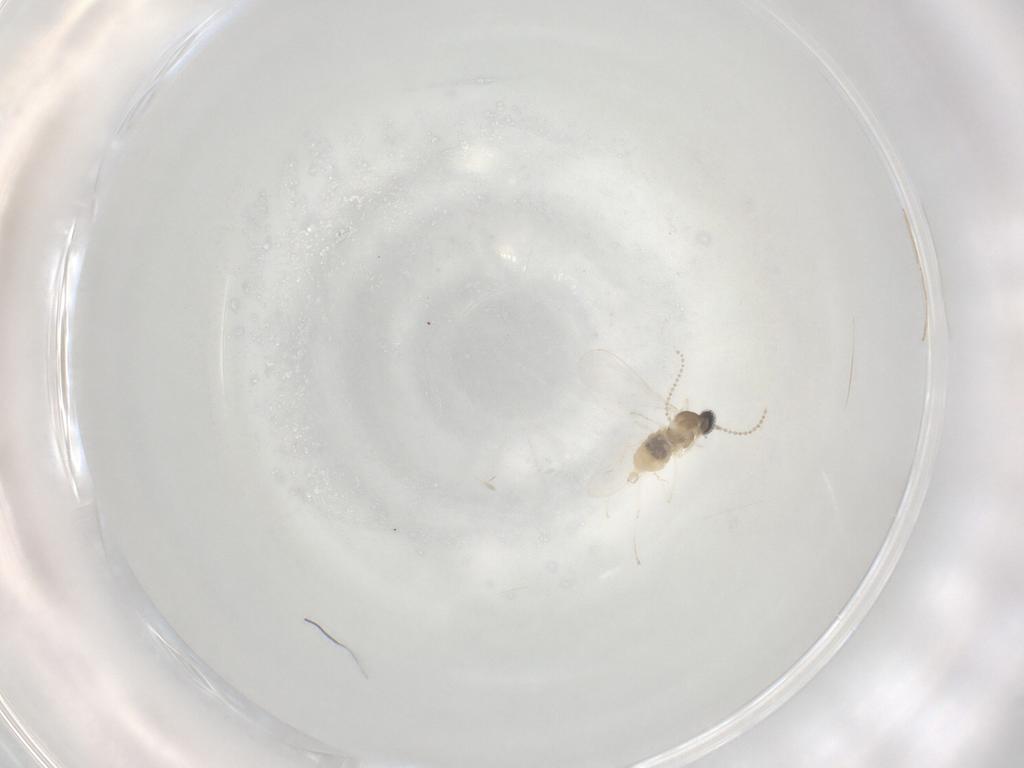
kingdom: Animalia
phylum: Arthropoda
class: Insecta
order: Diptera
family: Cecidomyiidae
